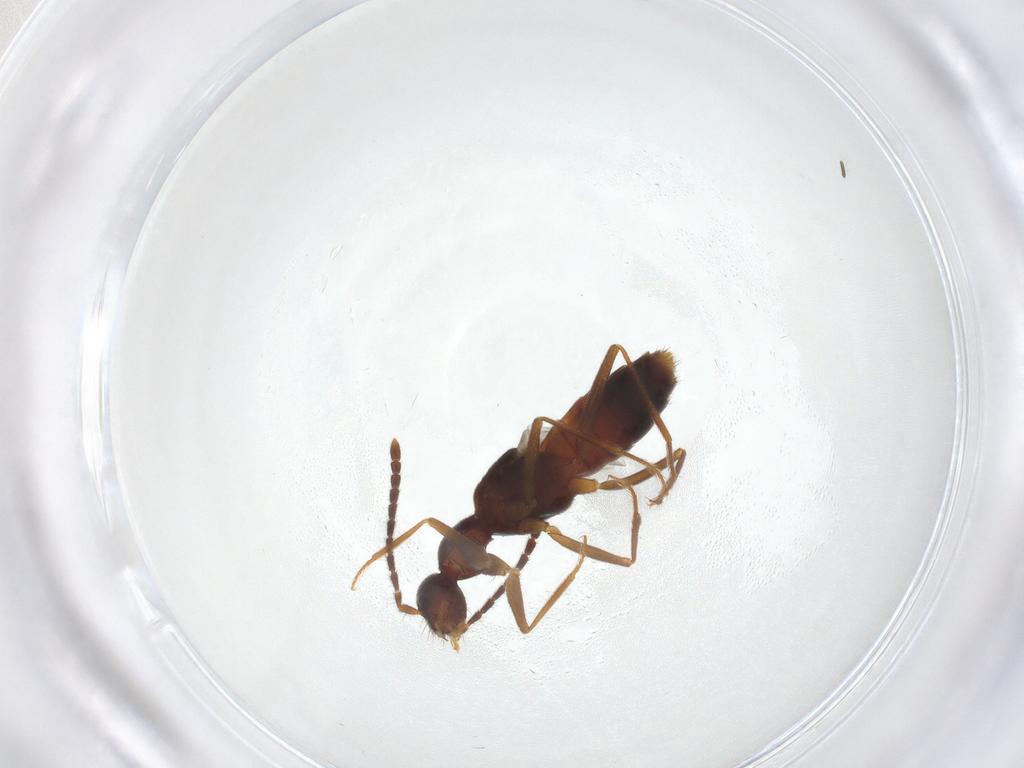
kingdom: Animalia
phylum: Arthropoda
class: Insecta
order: Coleoptera
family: Staphylinidae
